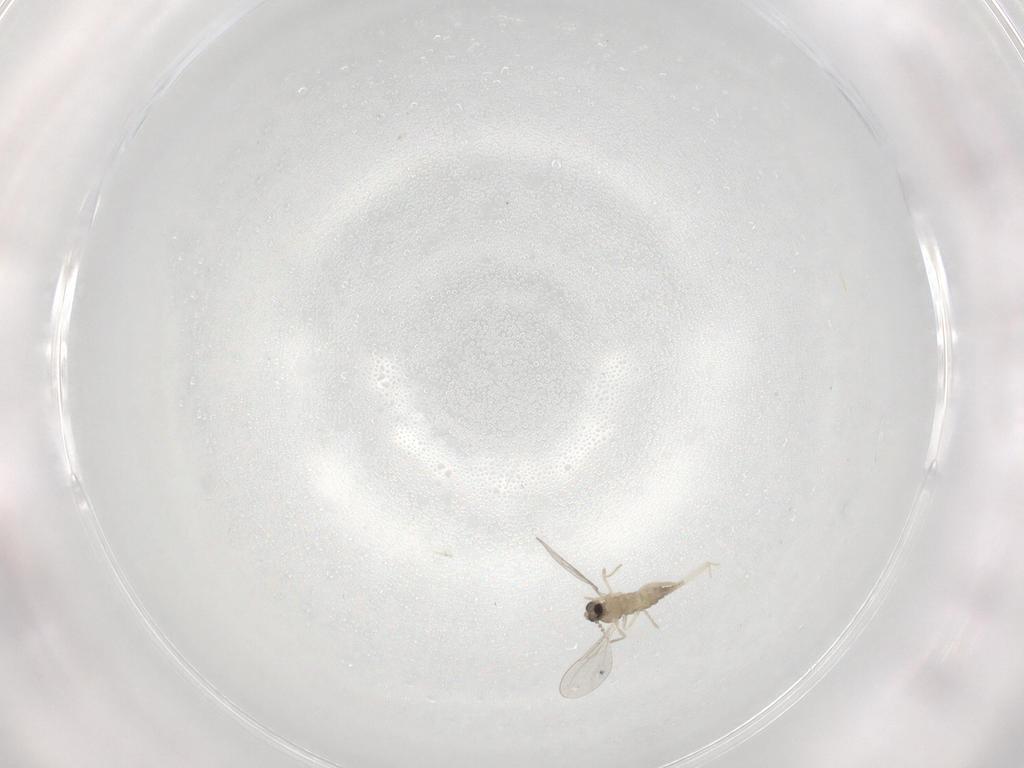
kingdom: Animalia
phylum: Arthropoda
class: Insecta
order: Diptera
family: Cecidomyiidae
